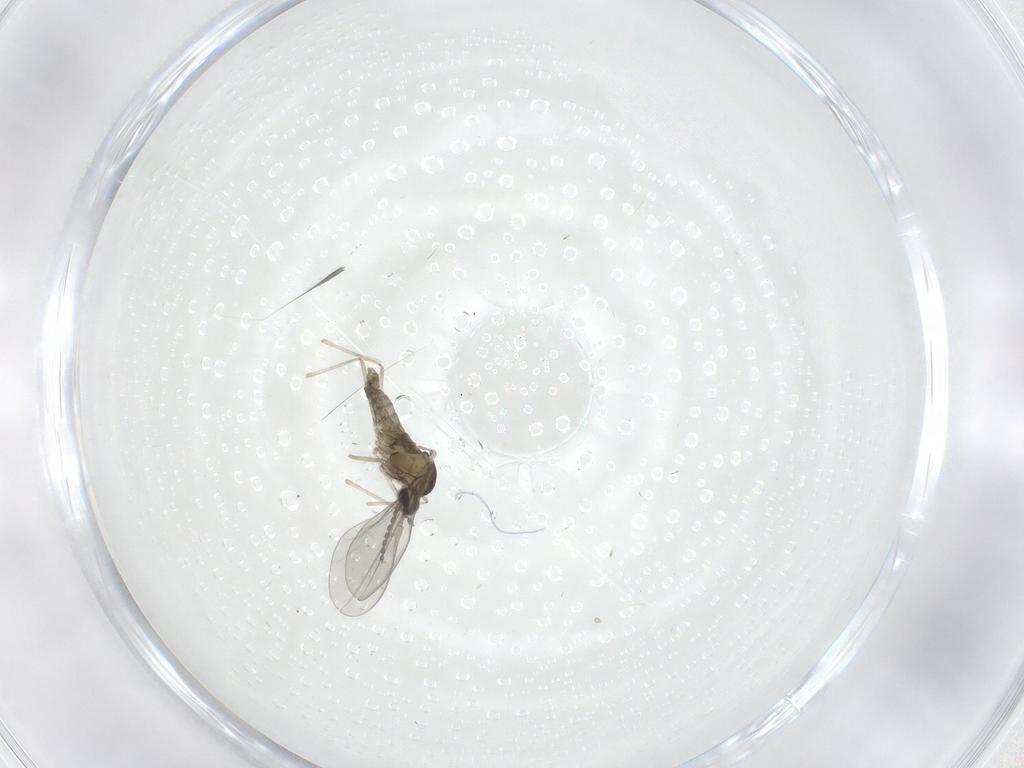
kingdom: Animalia
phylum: Arthropoda
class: Insecta
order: Diptera
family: Cecidomyiidae
